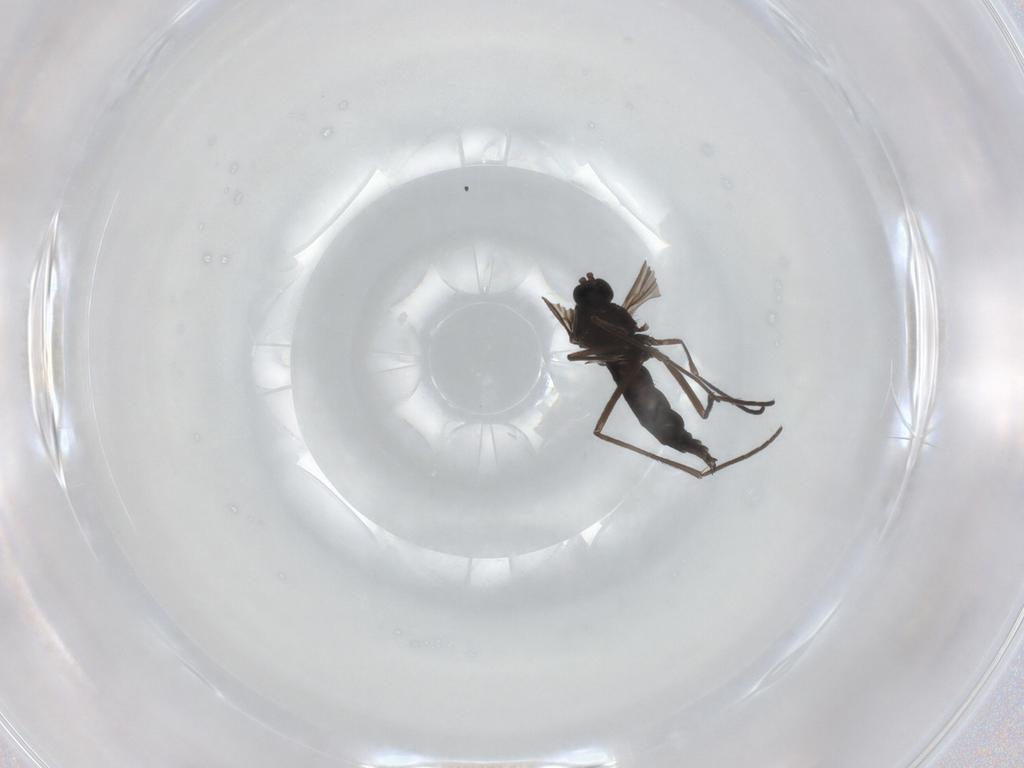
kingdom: Animalia
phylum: Arthropoda
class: Insecta
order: Diptera
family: Sciaridae
